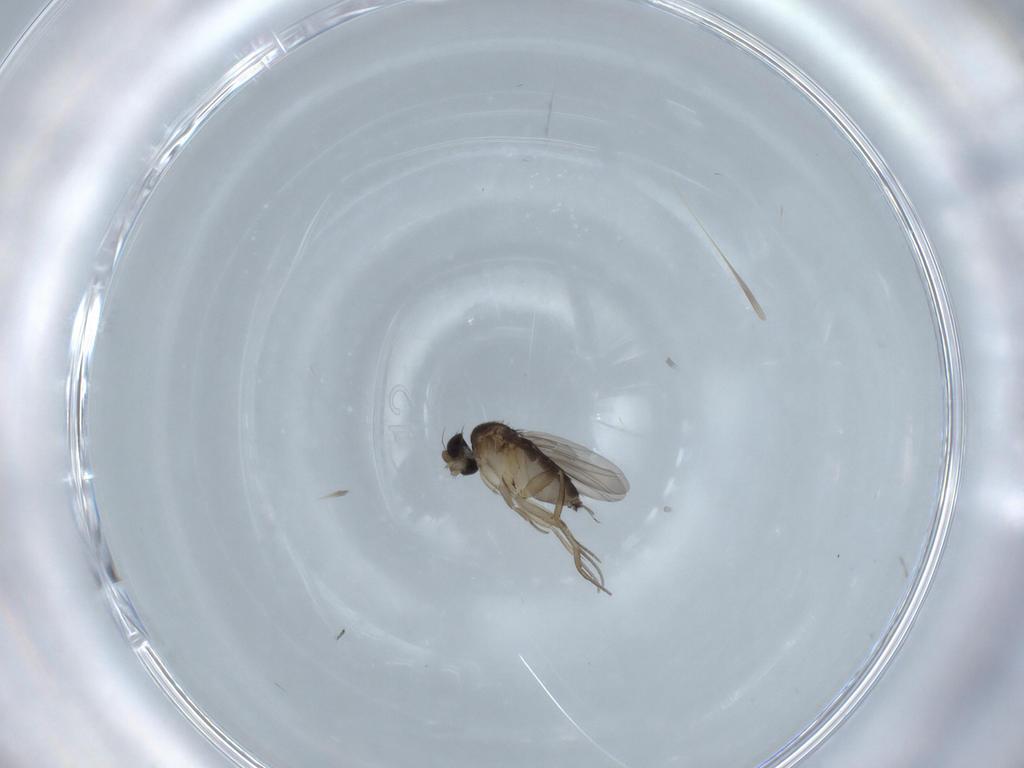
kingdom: Animalia
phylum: Arthropoda
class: Insecta
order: Diptera
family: Phoridae
